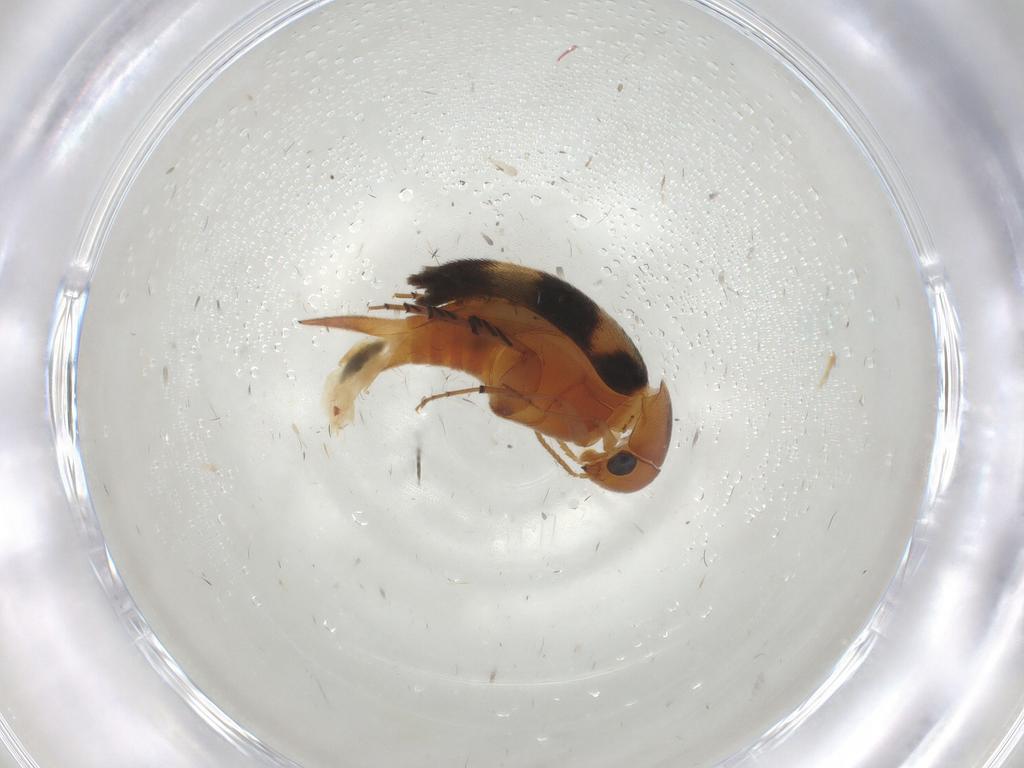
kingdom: Animalia
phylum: Arthropoda
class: Insecta
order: Coleoptera
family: Mordellidae
